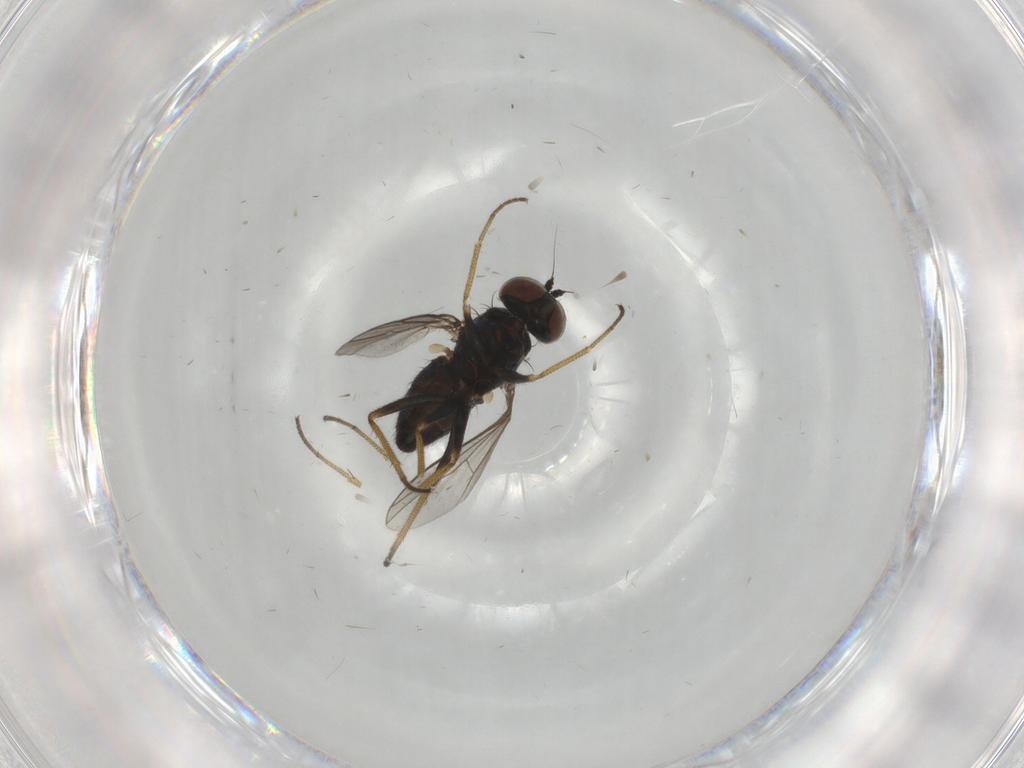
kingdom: Animalia
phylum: Arthropoda
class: Insecta
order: Diptera
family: Dolichopodidae
